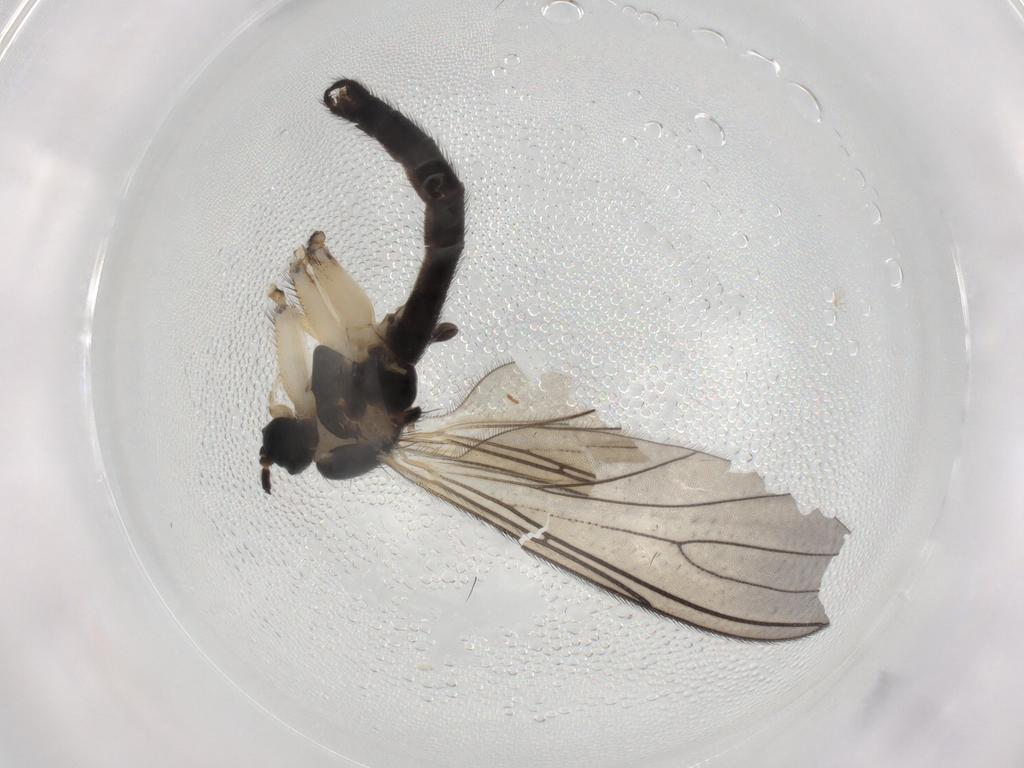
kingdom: Animalia
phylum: Arthropoda
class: Insecta
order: Diptera
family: Sciaridae
